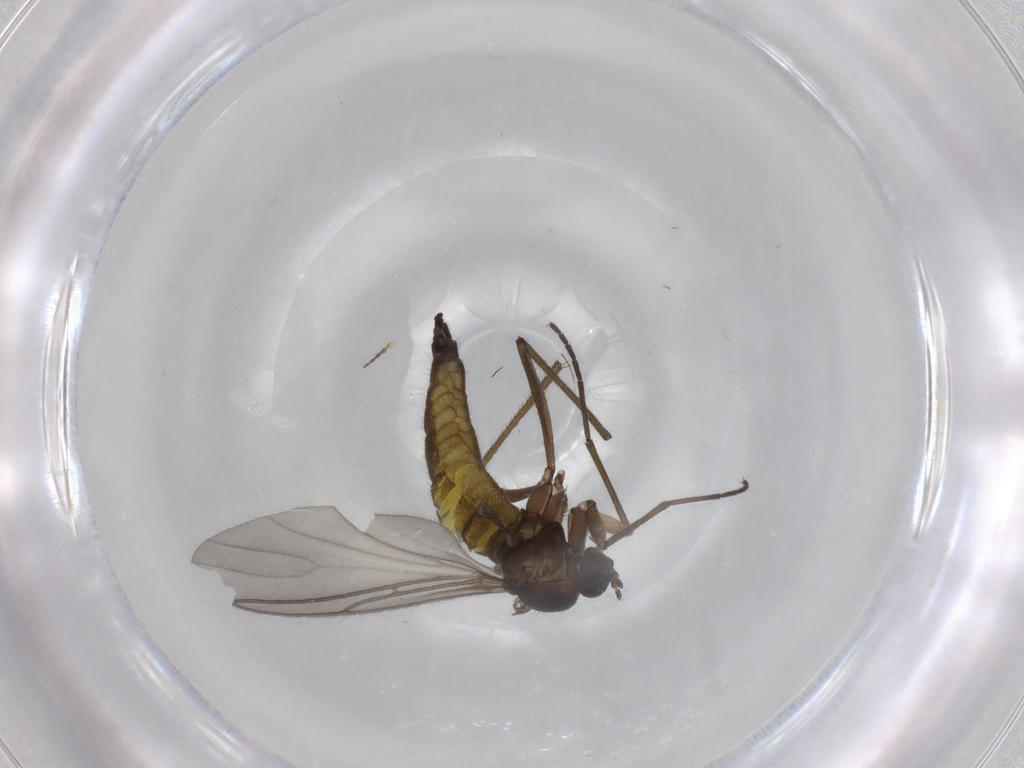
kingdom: Animalia
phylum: Arthropoda
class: Insecta
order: Diptera
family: Sciaridae
